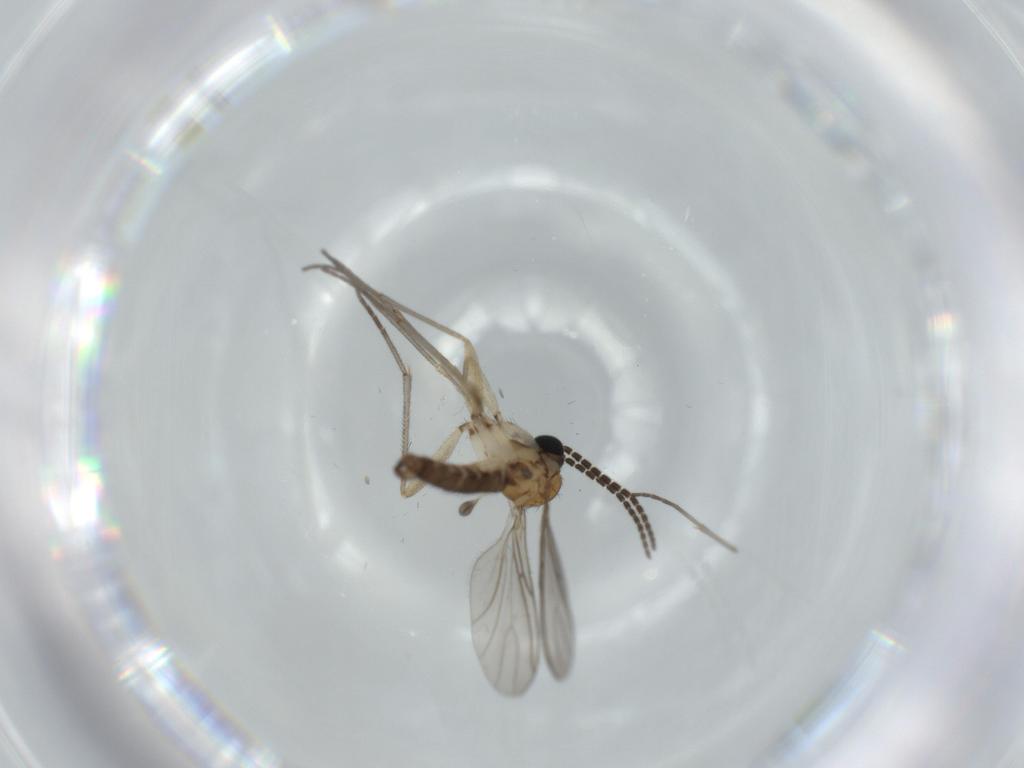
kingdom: Animalia
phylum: Arthropoda
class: Insecta
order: Diptera
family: Sciaridae
